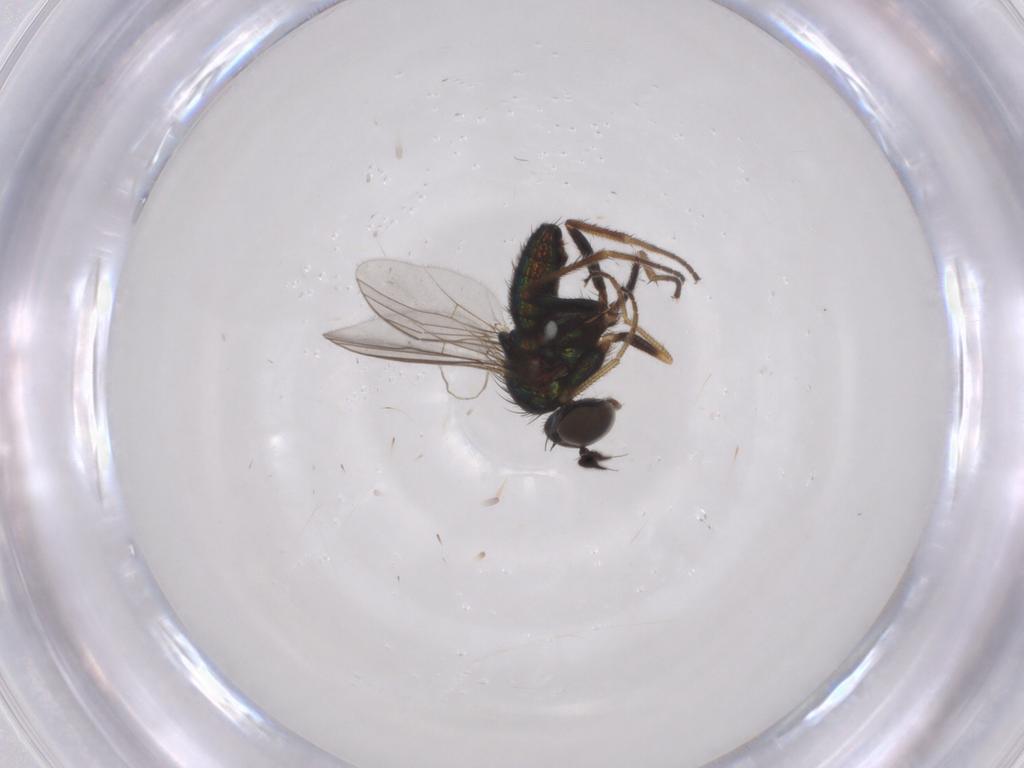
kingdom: Animalia
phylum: Arthropoda
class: Insecta
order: Diptera
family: Dolichopodidae
